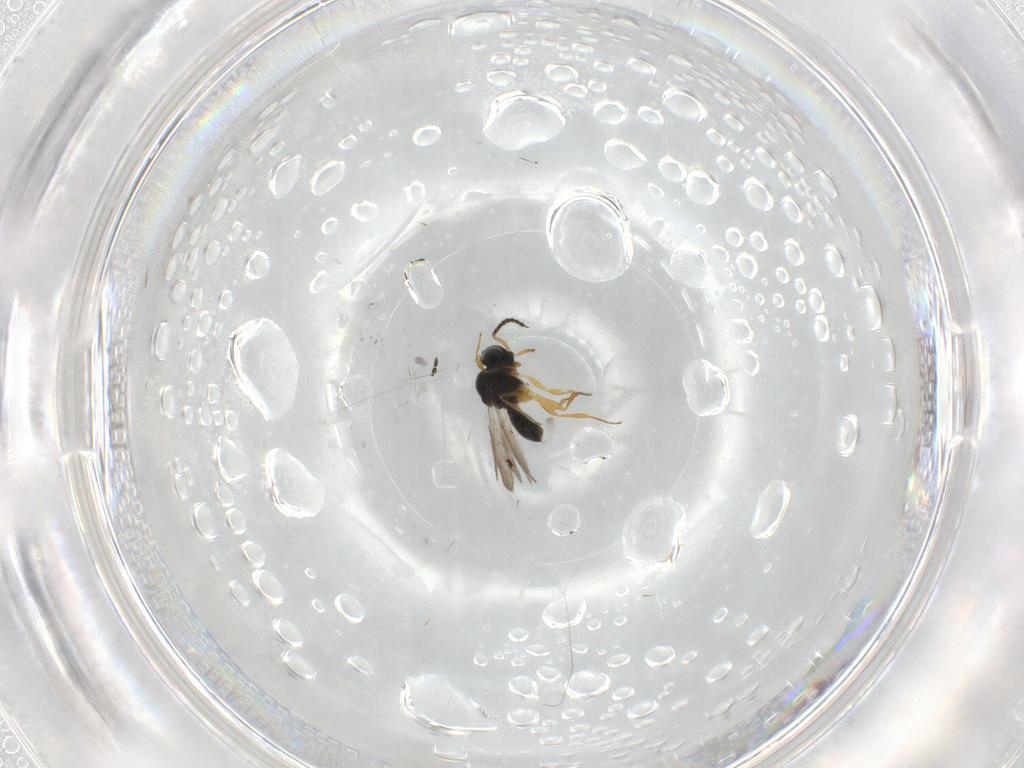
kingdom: Animalia
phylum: Arthropoda
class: Insecta
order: Hymenoptera
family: Scelionidae
